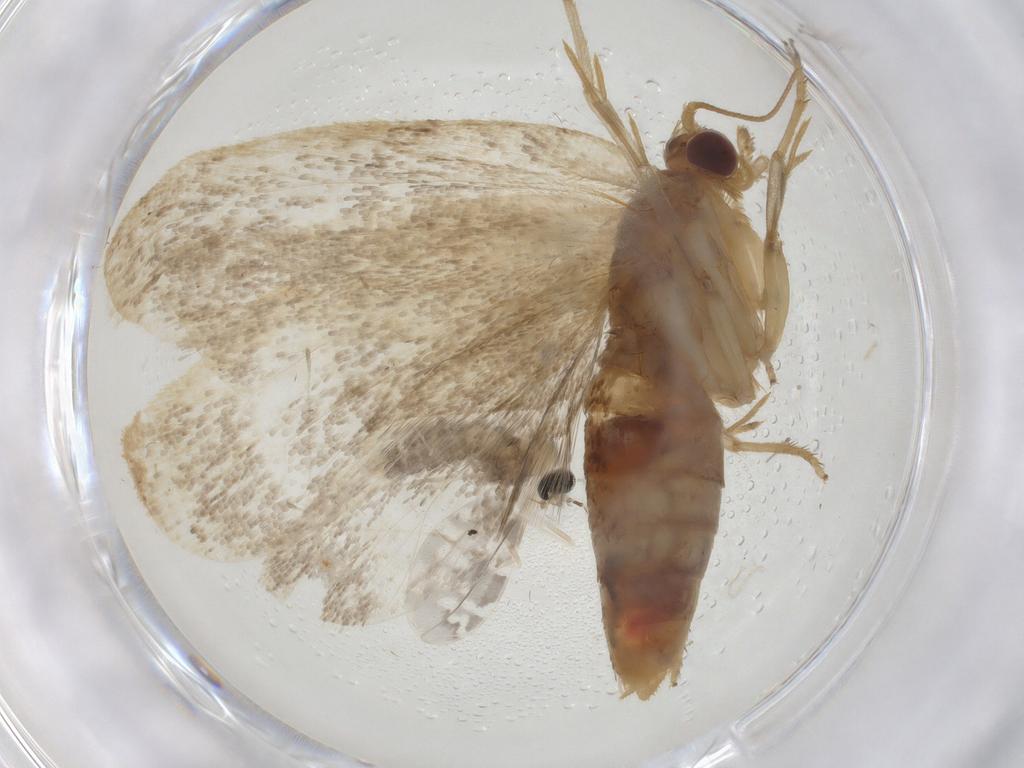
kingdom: Animalia
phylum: Arthropoda
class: Insecta
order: Lepidoptera
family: Tortricidae
